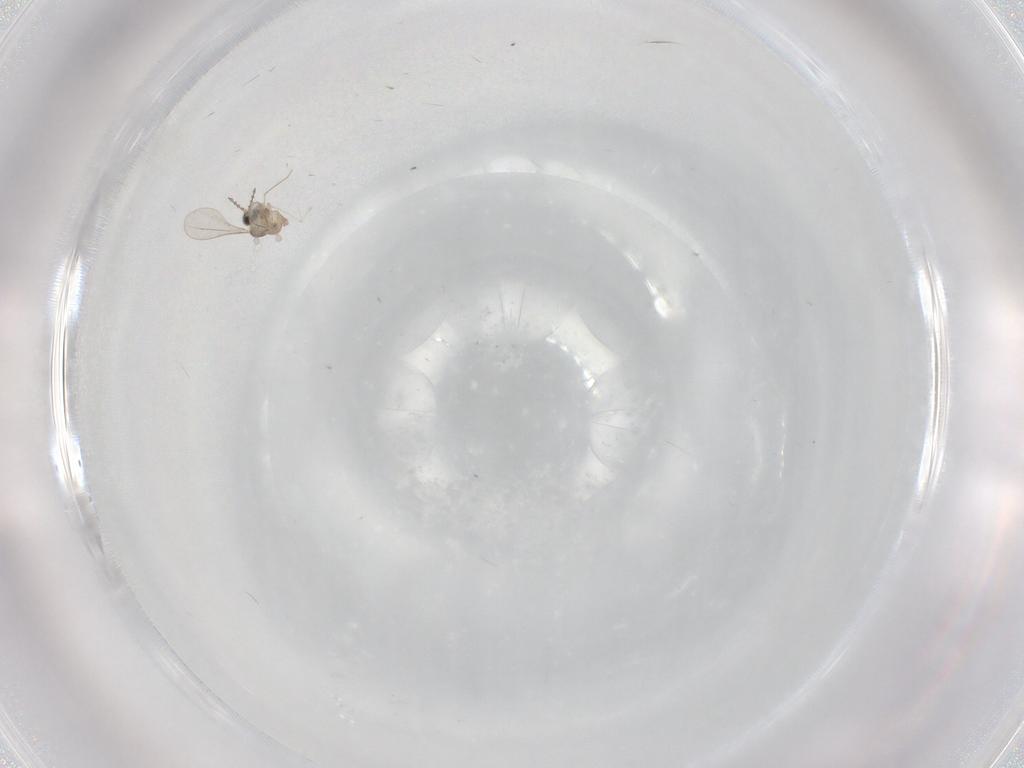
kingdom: Animalia
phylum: Arthropoda
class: Insecta
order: Diptera
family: Cecidomyiidae
